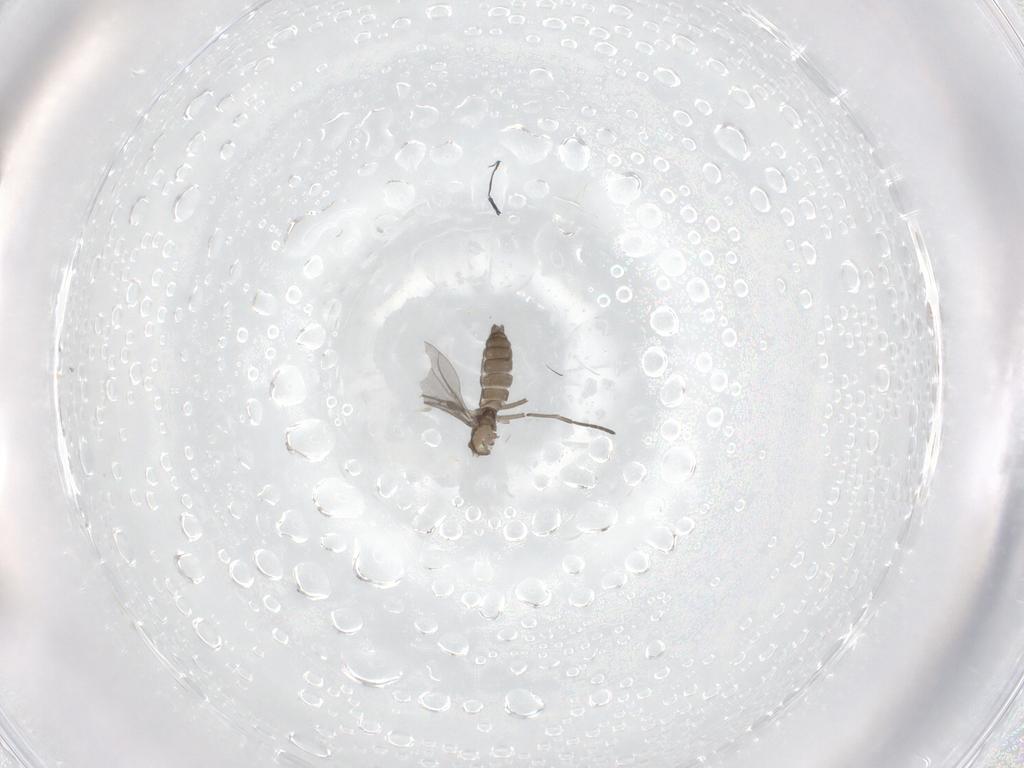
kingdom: Animalia
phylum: Arthropoda
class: Insecta
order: Diptera
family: Limoniidae
